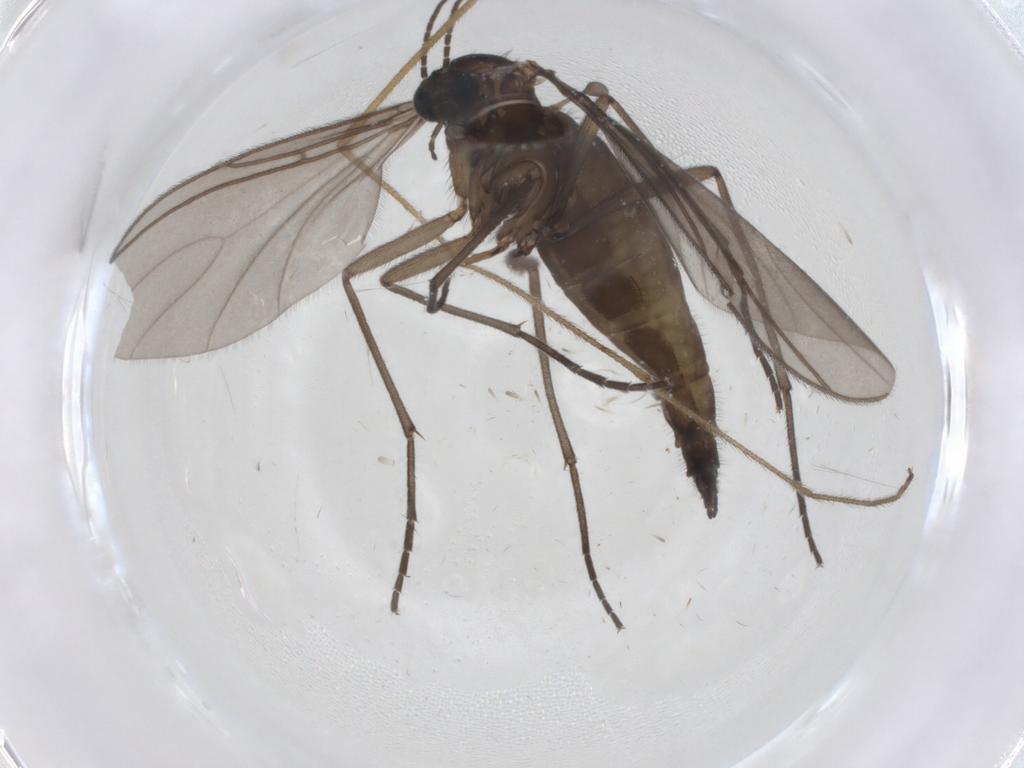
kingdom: Animalia
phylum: Arthropoda
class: Insecta
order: Diptera
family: Sciaridae
